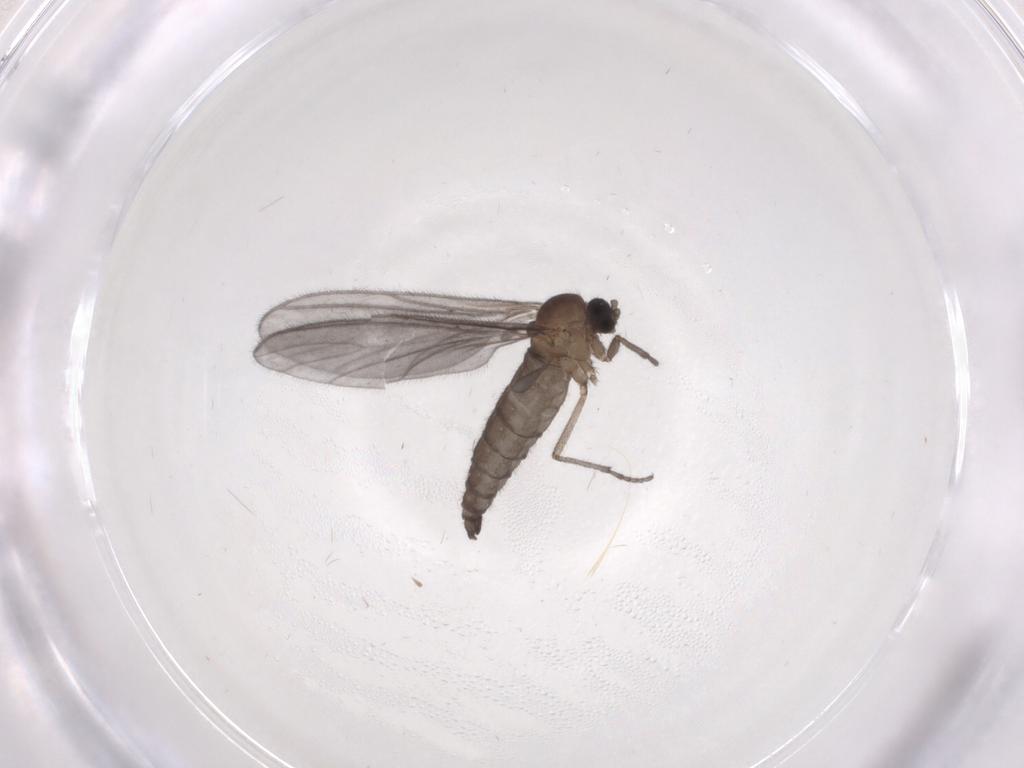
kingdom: Animalia
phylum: Arthropoda
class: Insecta
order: Diptera
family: Sciaridae
